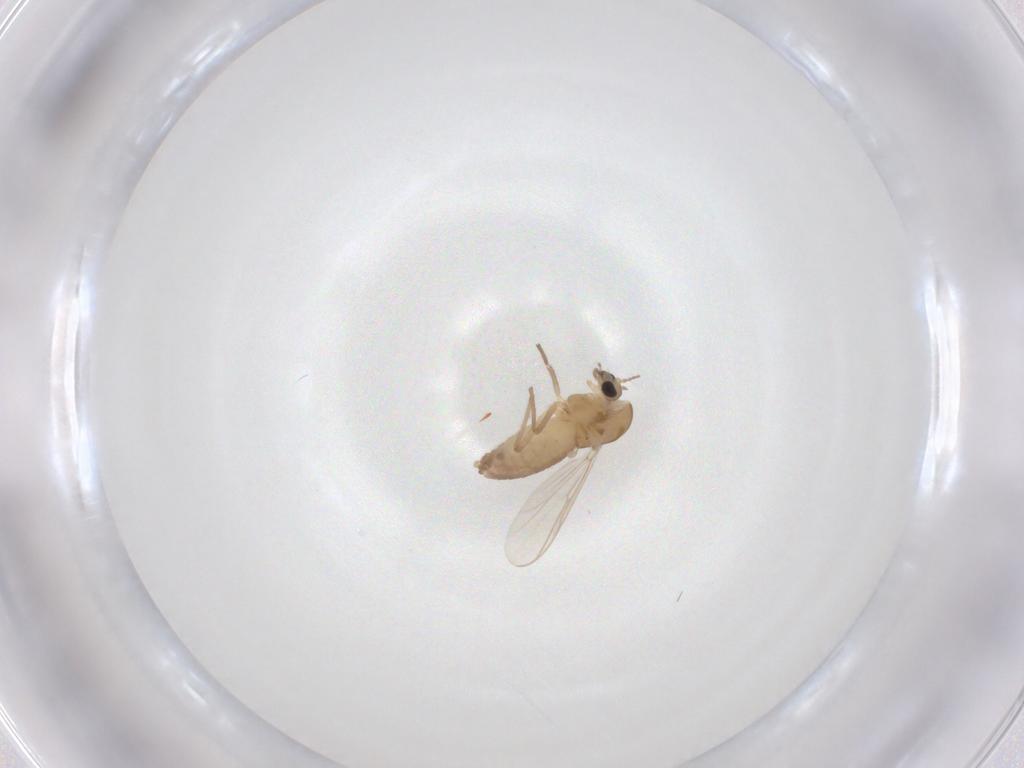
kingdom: Animalia
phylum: Arthropoda
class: Insecta
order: Diptera
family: Chironomidae
